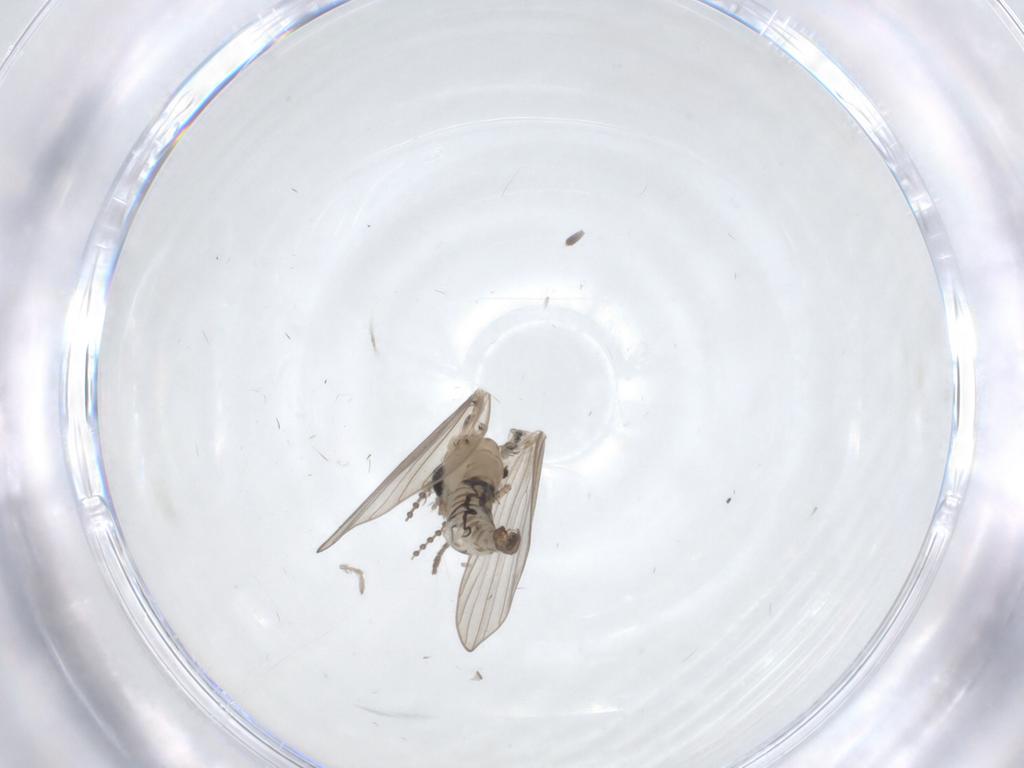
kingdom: Animalia
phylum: Arthropoda
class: Insecta
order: Diptera
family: Psychodidae
